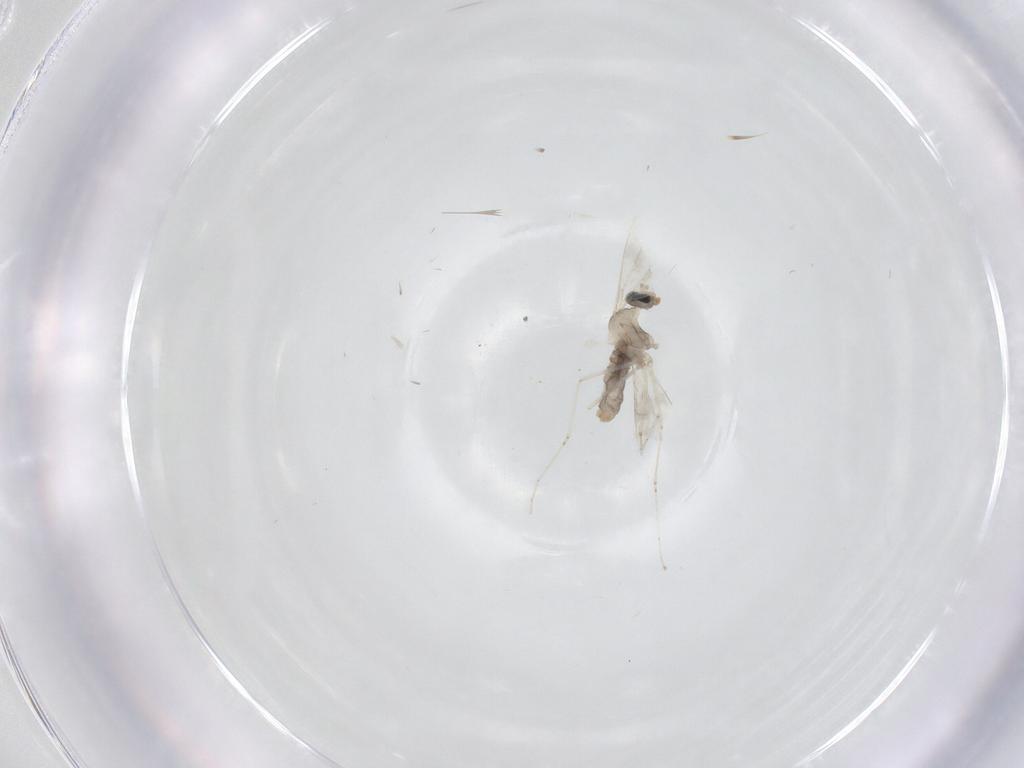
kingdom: Animalia
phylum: Arthropoda
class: Insecta
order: Diptera
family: Cecidomyiidae
